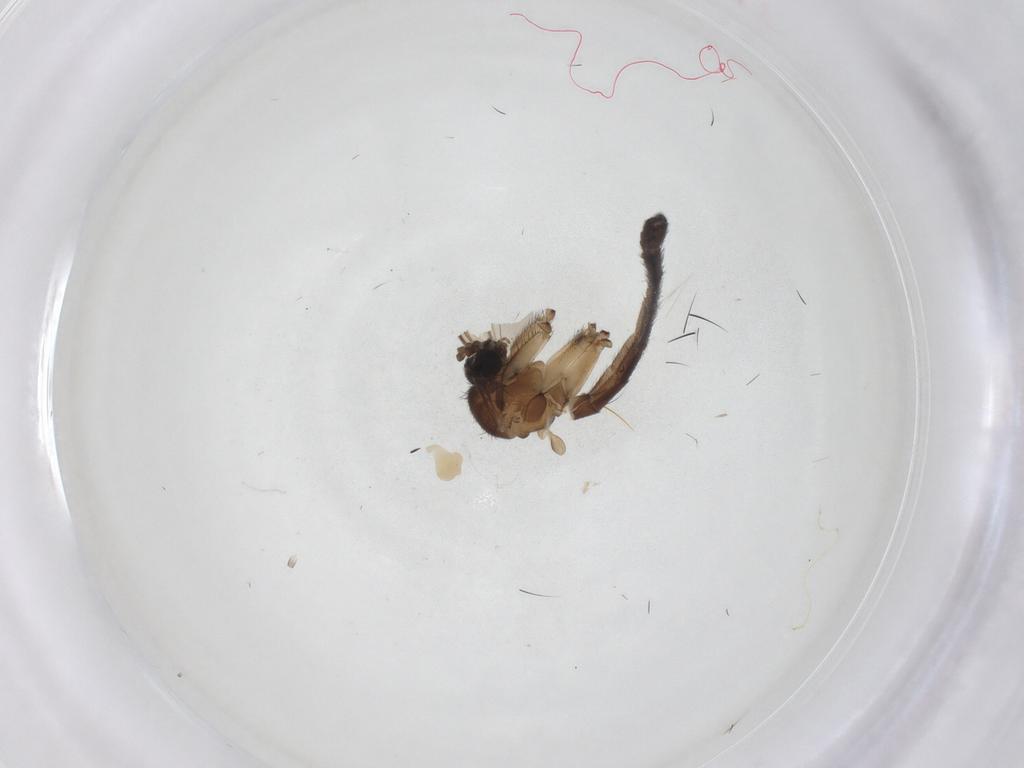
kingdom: Animalia
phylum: Arthropoda
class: Insecta
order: Diptera
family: Keroplatidae
